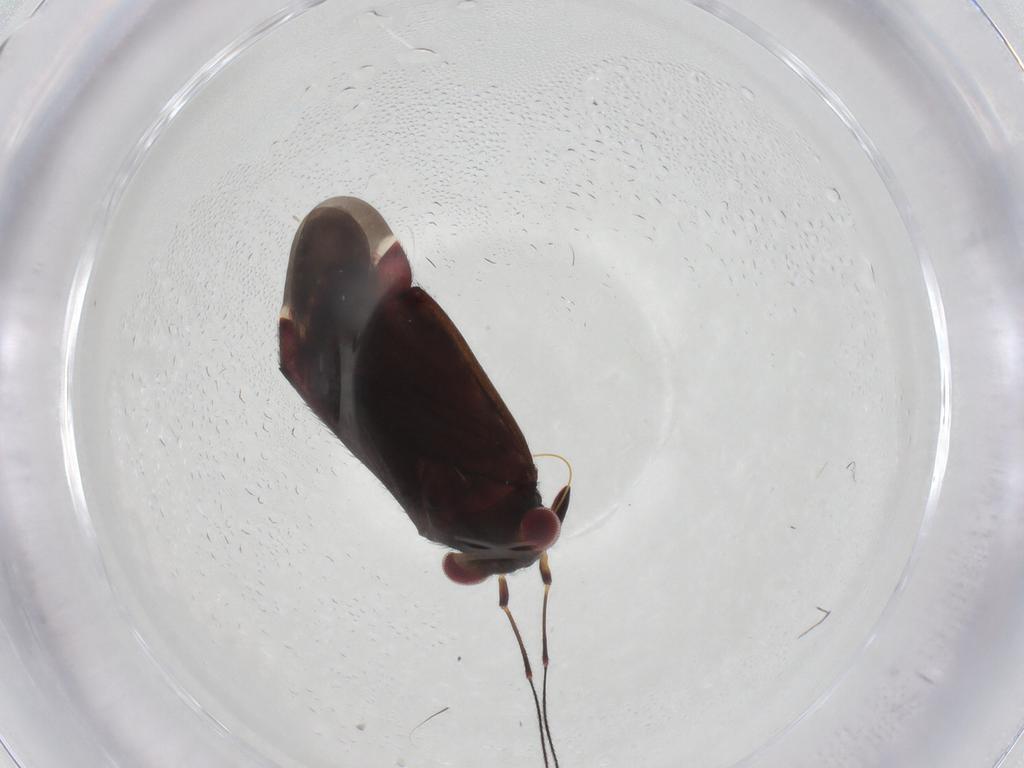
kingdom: Animalia
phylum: Arthropoda
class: Insecta
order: Hemiptera
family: Miridae
